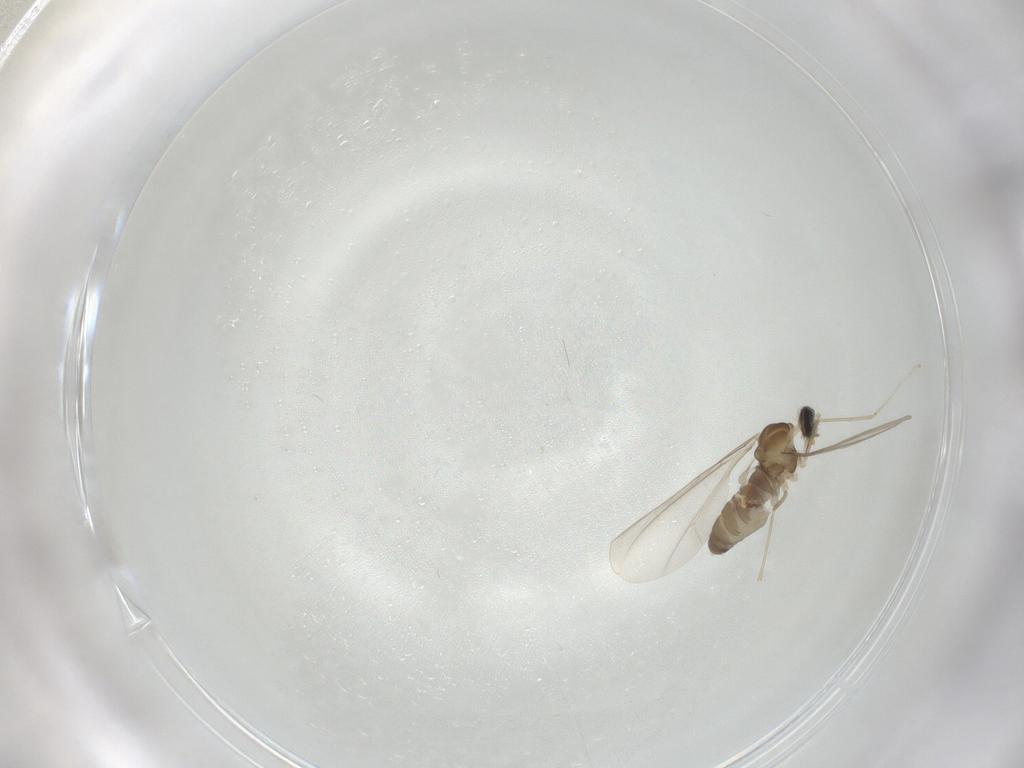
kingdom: Animalia
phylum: Arthropoda
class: Insecta
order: Diptera
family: Cecidomyiidae
